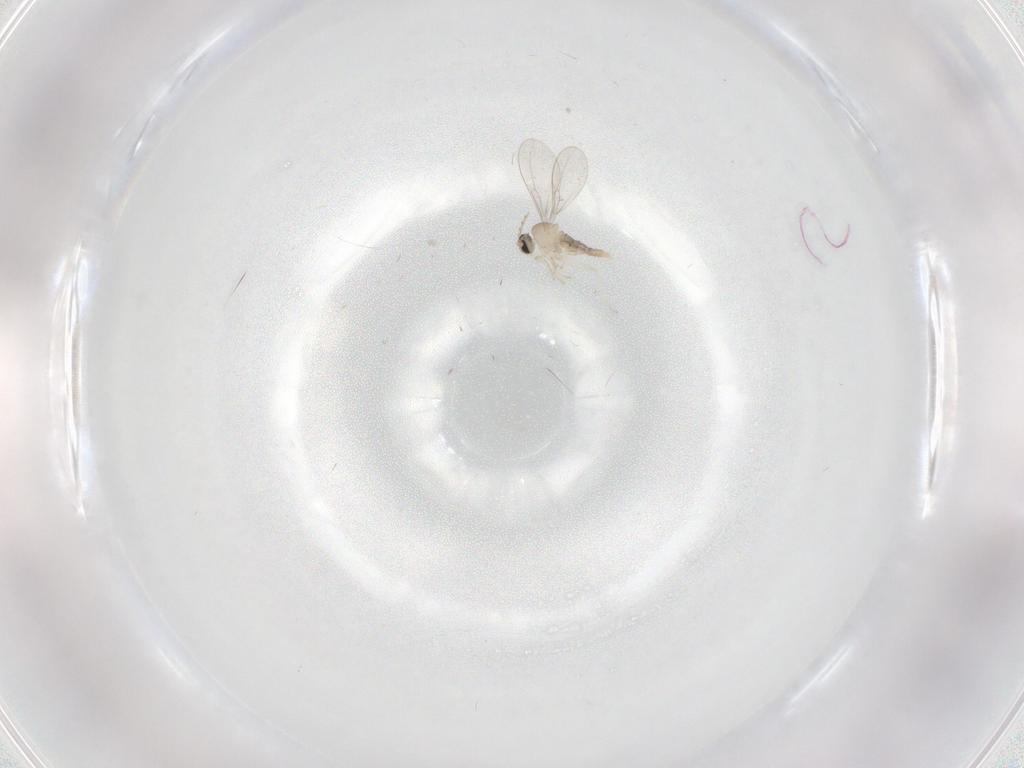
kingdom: Animalia
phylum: Arthropoda
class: Insecta
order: Diptera
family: Cecidomyiidae
